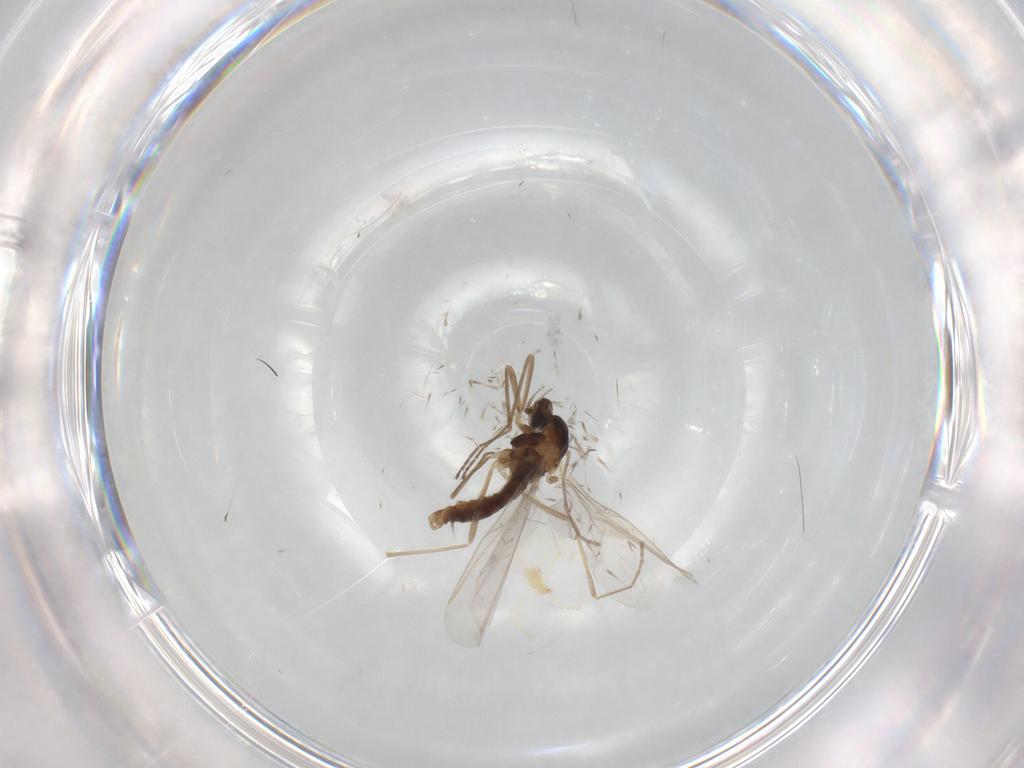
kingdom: Animalia
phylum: Arthropoda
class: Insecta
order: Diptera
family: Cecidomyiidae
